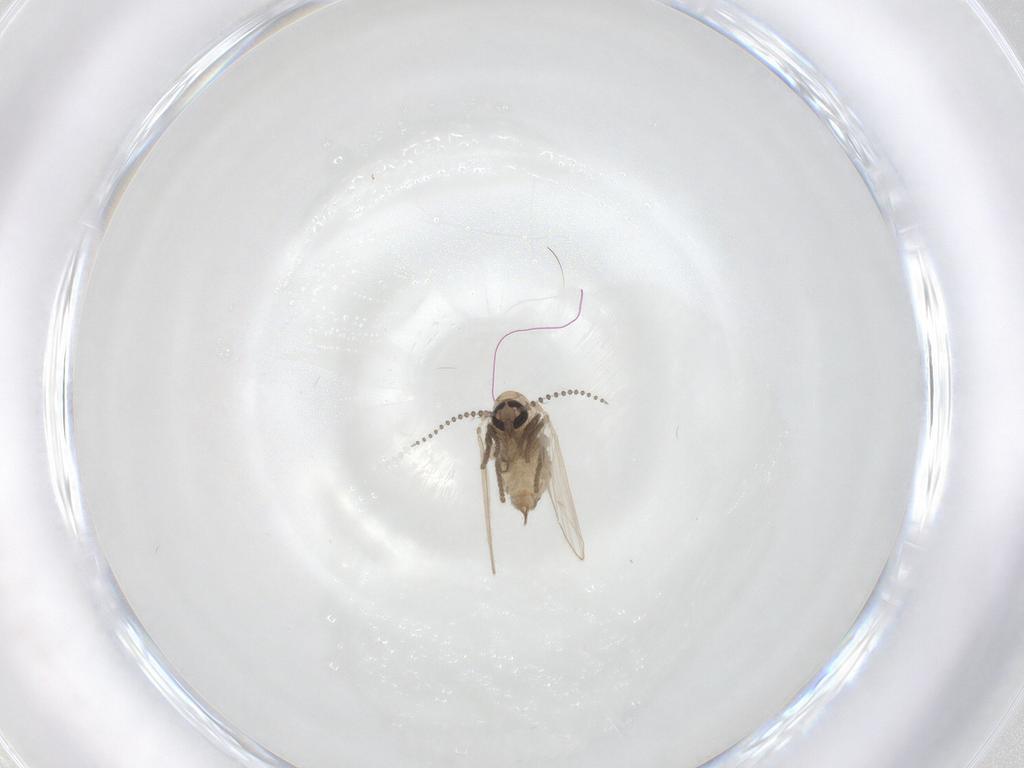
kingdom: Animalia
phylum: Arthropoda
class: Insecta
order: Diptera
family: Psychodidae
